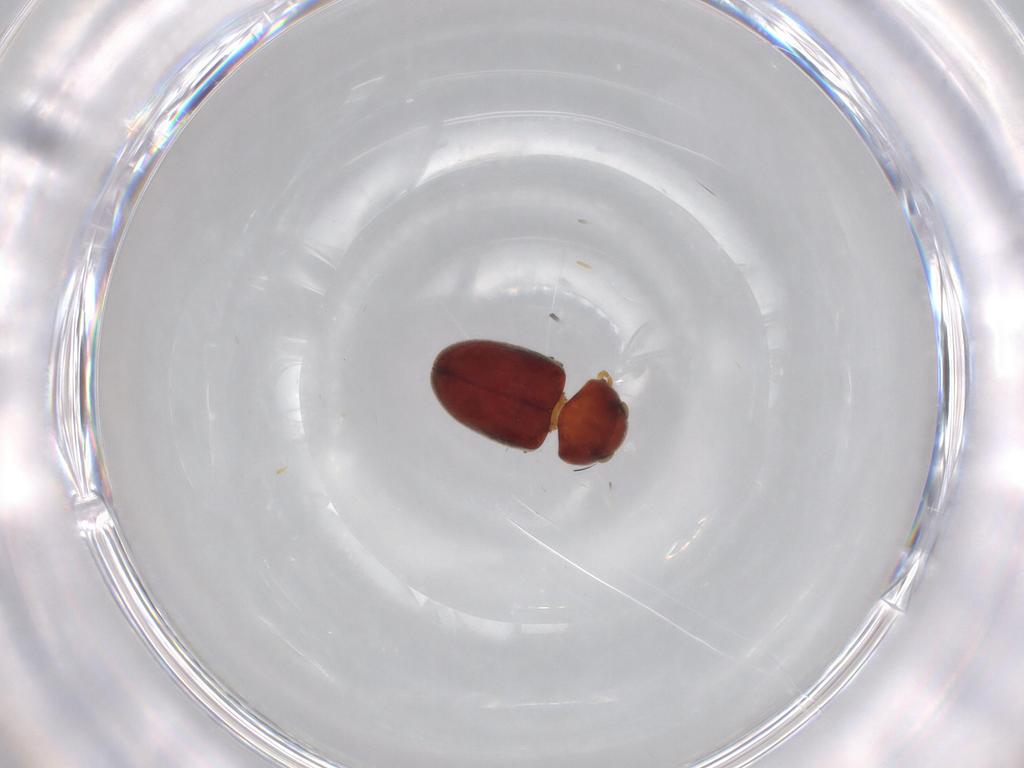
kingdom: Animalia
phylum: Arthropoda
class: Insecta
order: Coleoptera
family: Ptinidae
